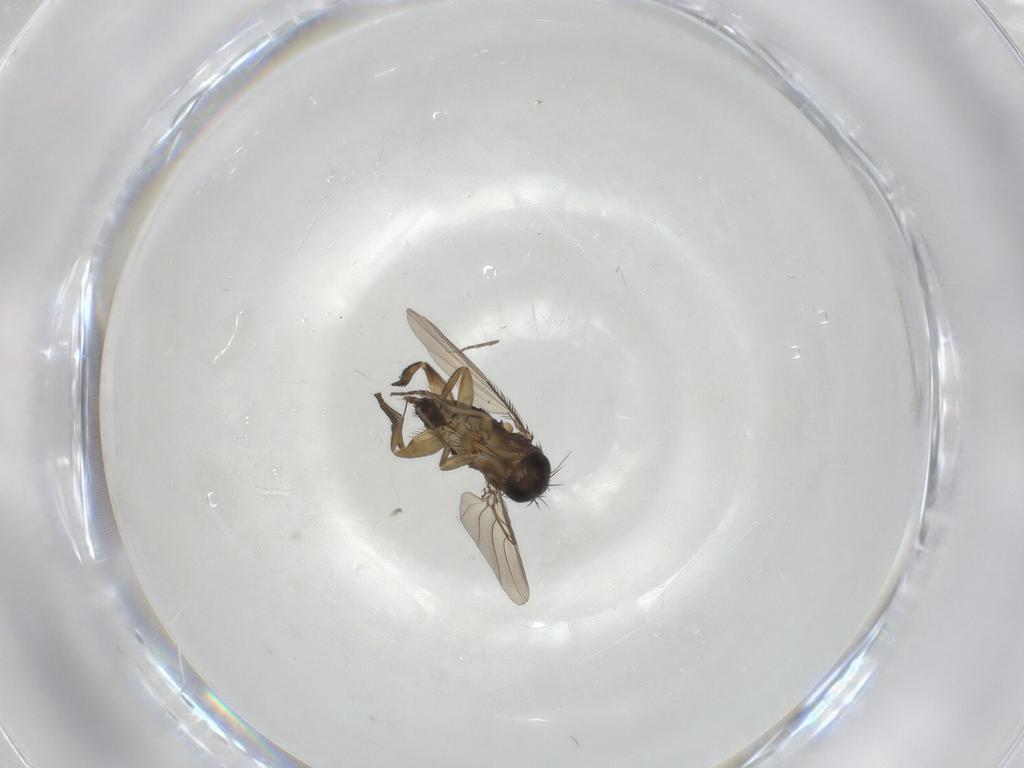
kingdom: Animalia
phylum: Arthropoda
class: Insecta
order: Diptera
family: Phoridae
